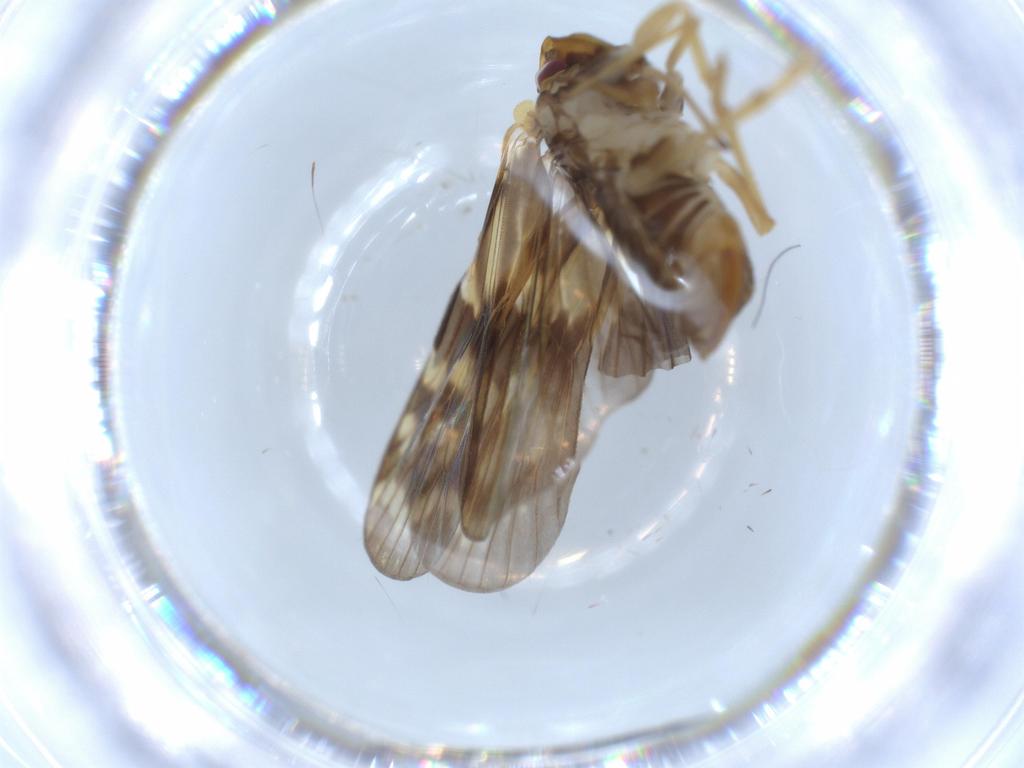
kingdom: Animalia
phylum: Arthropoda
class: Insecta
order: Hemiptera
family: Cixiidae
